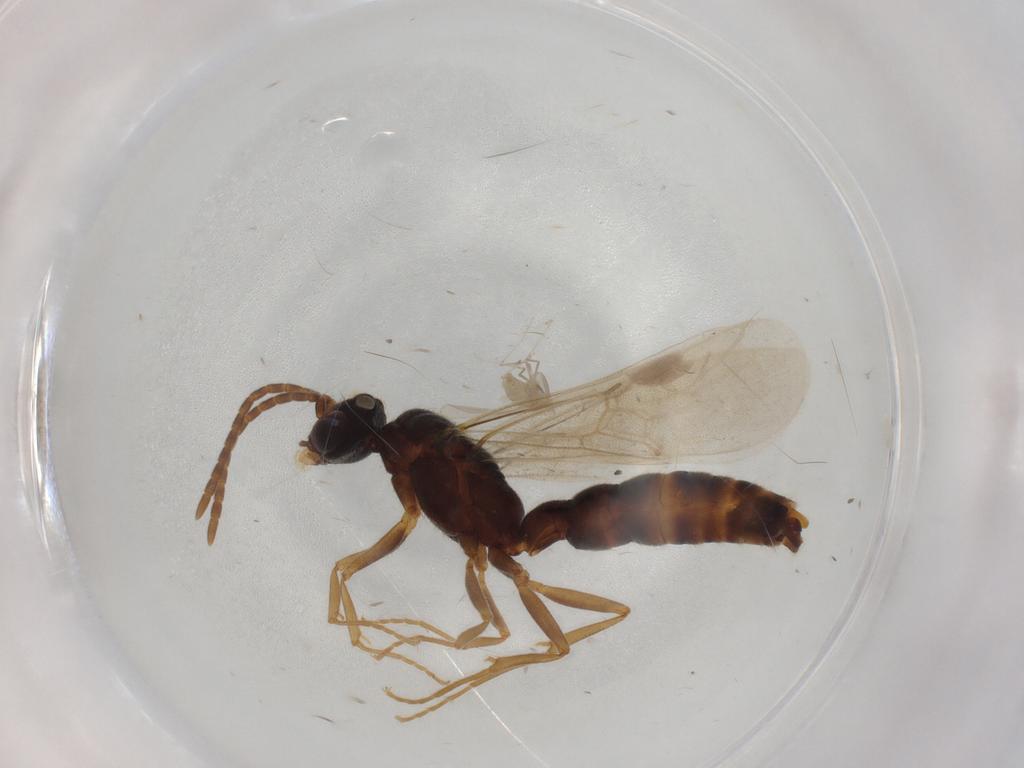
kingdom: Animalia
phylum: Arthropoda
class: Insecta
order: Hymenoptera
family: Formicidae
